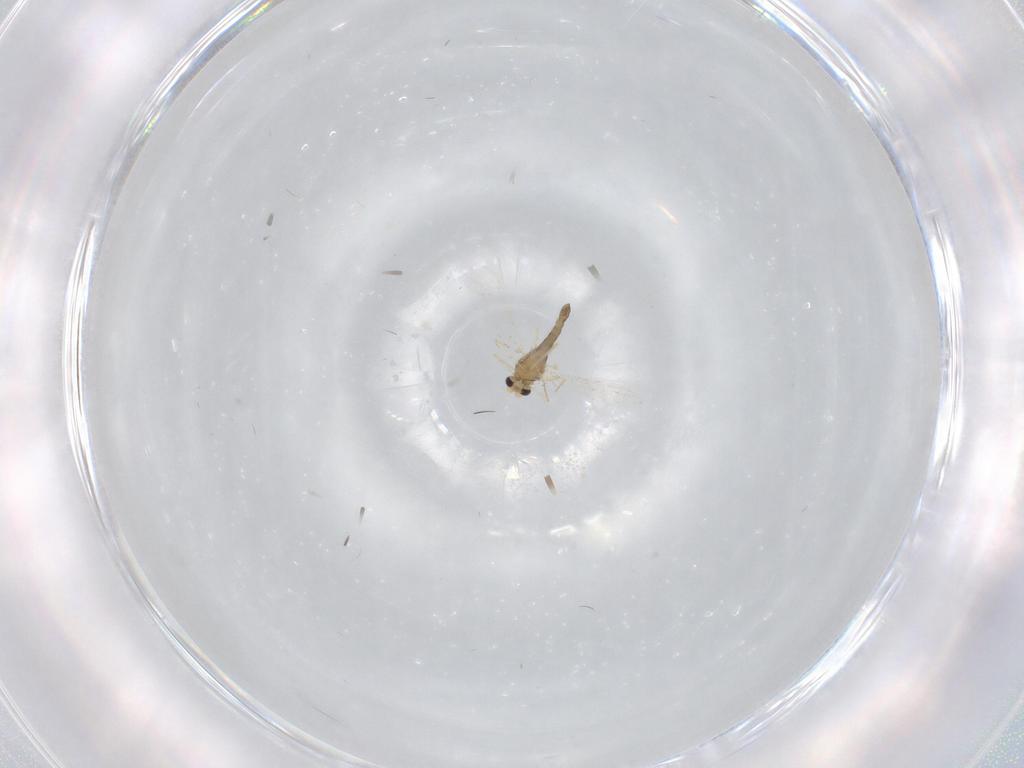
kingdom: Animalia
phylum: Arthropoda
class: Insecta
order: Diptera
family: Chironomidae
